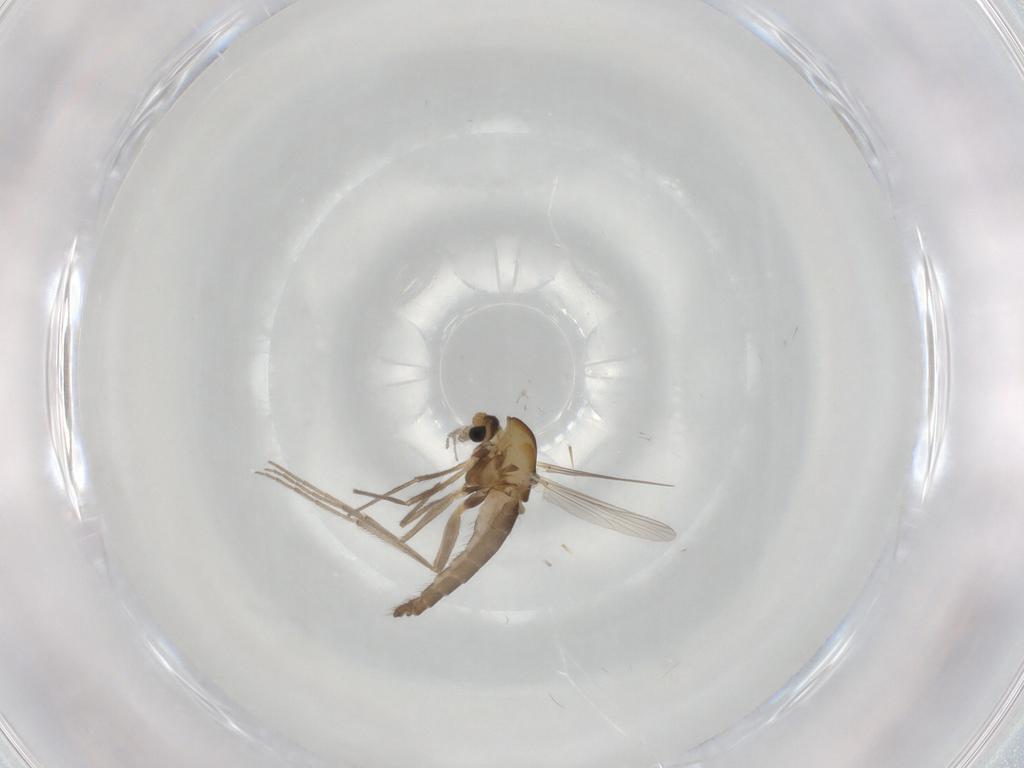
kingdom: Animalia
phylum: Arthropoda
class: Insecta
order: Diptera
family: Chironomidae
